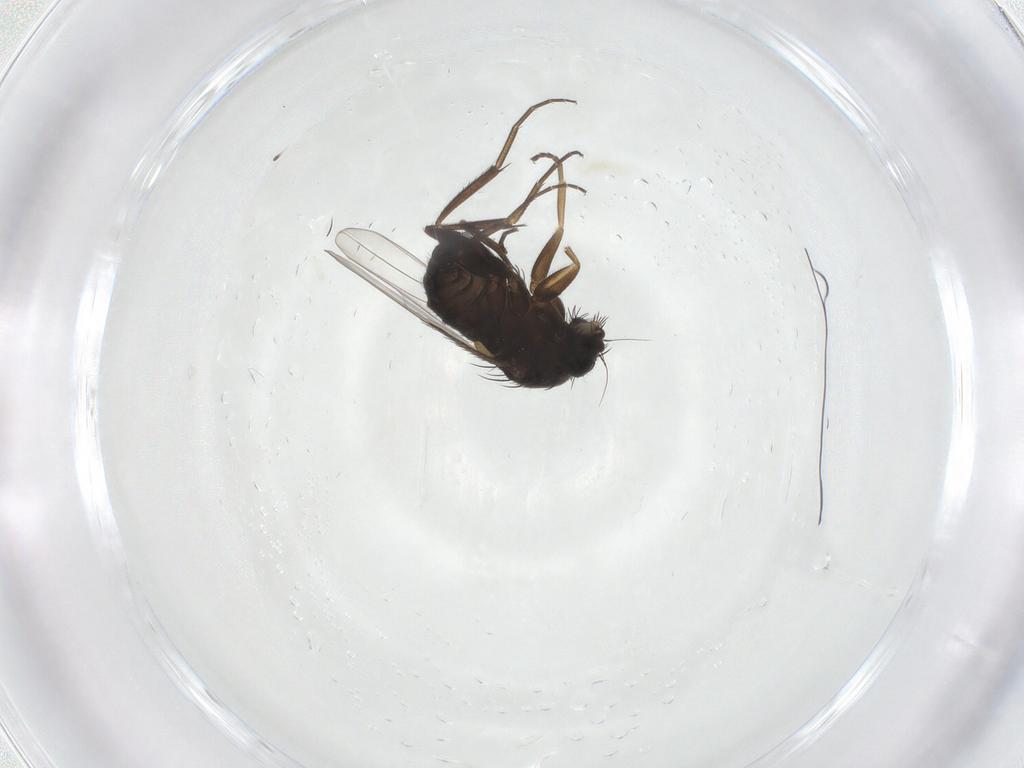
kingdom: Animalia
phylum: Arthropoda
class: Insecta
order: Diptera
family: Phoridae
